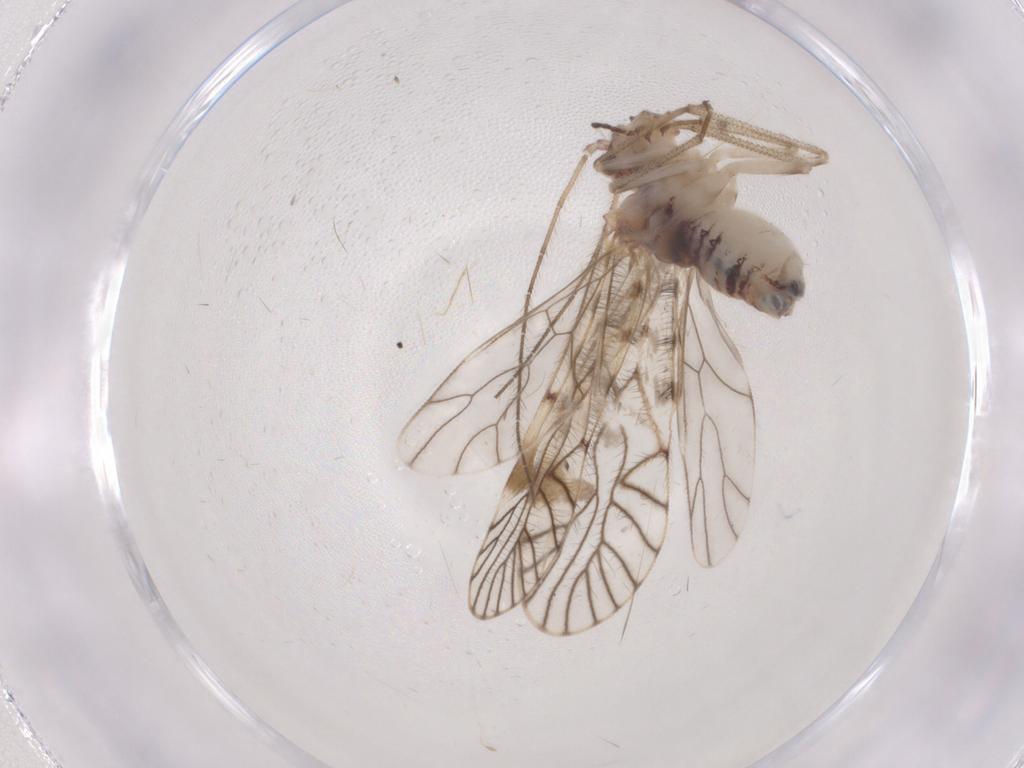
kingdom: Animalia
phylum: Arthropoda
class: Insecta
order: Psocodea
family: Amphipsocidae
